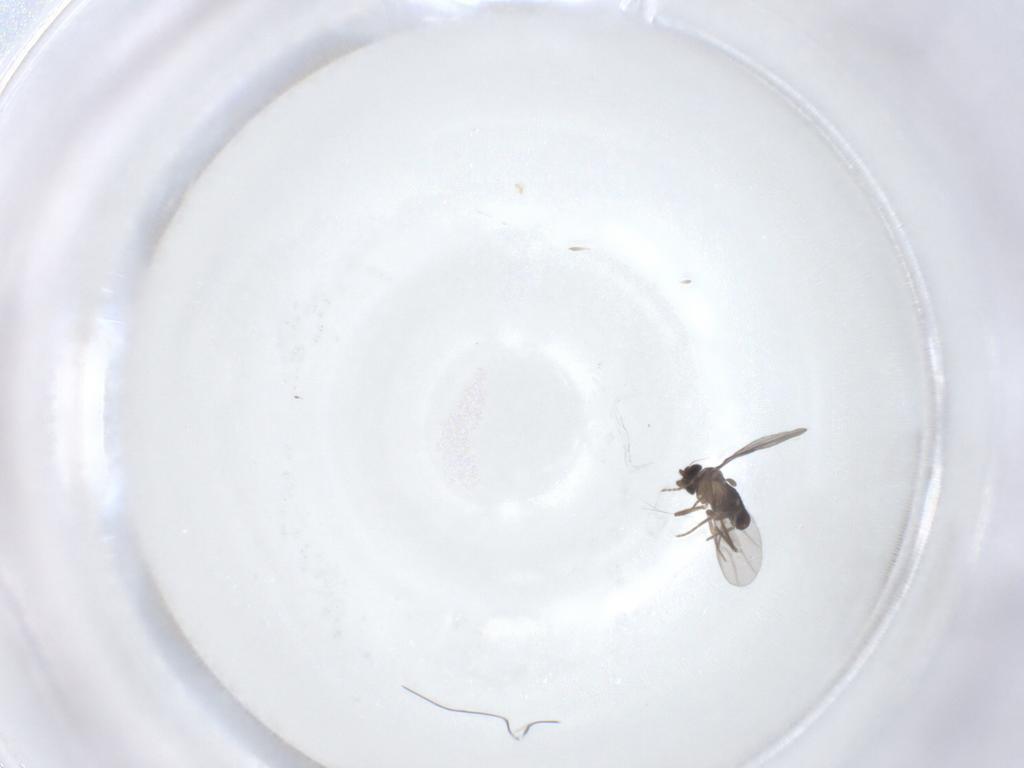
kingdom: Animalia
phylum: Arthropoda
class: Insecta
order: Diptera
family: Phoridae
